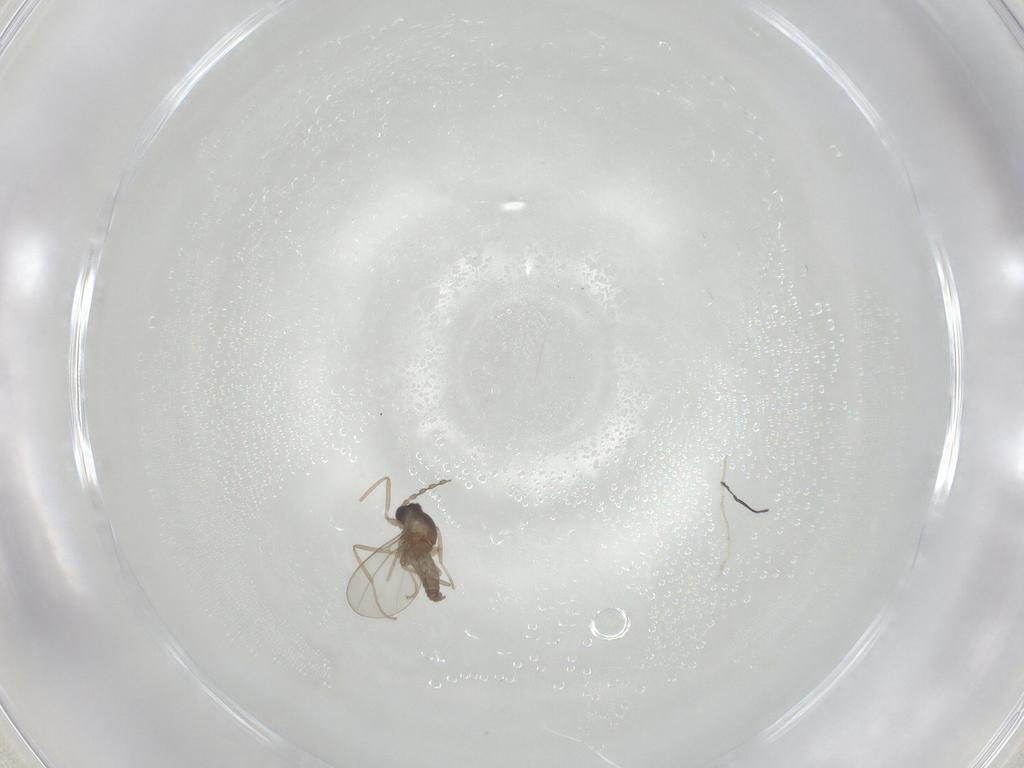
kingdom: Animalia
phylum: Arthropoda
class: Insecta
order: Diptera
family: Cecidomyiidae
